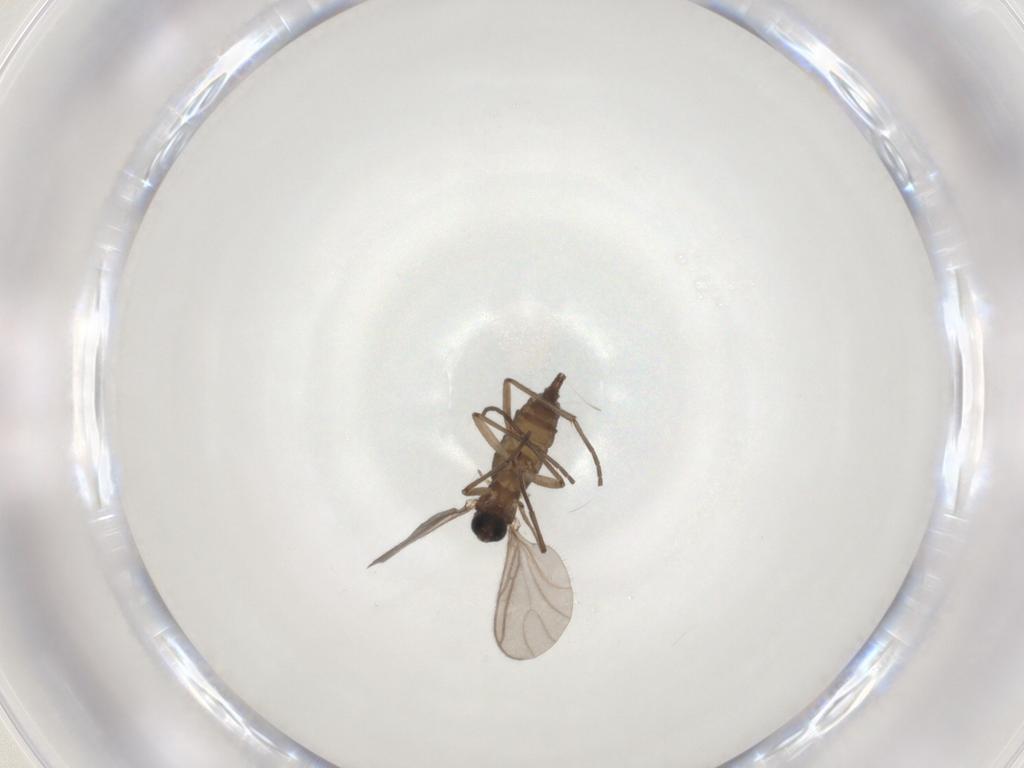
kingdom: Animalia
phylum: Arthropoda
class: Insecta
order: Diptera
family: Sciaridae
